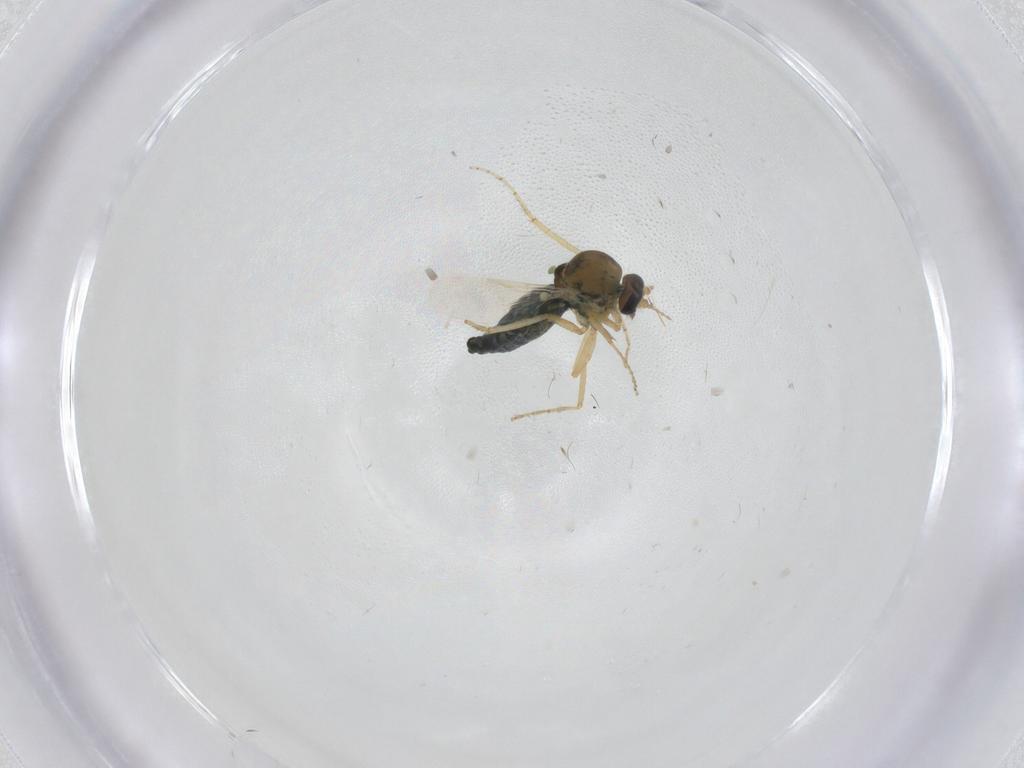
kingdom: Animalia
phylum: Arthropoda
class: Insecta
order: Diptera
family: Ceratopogonidae
